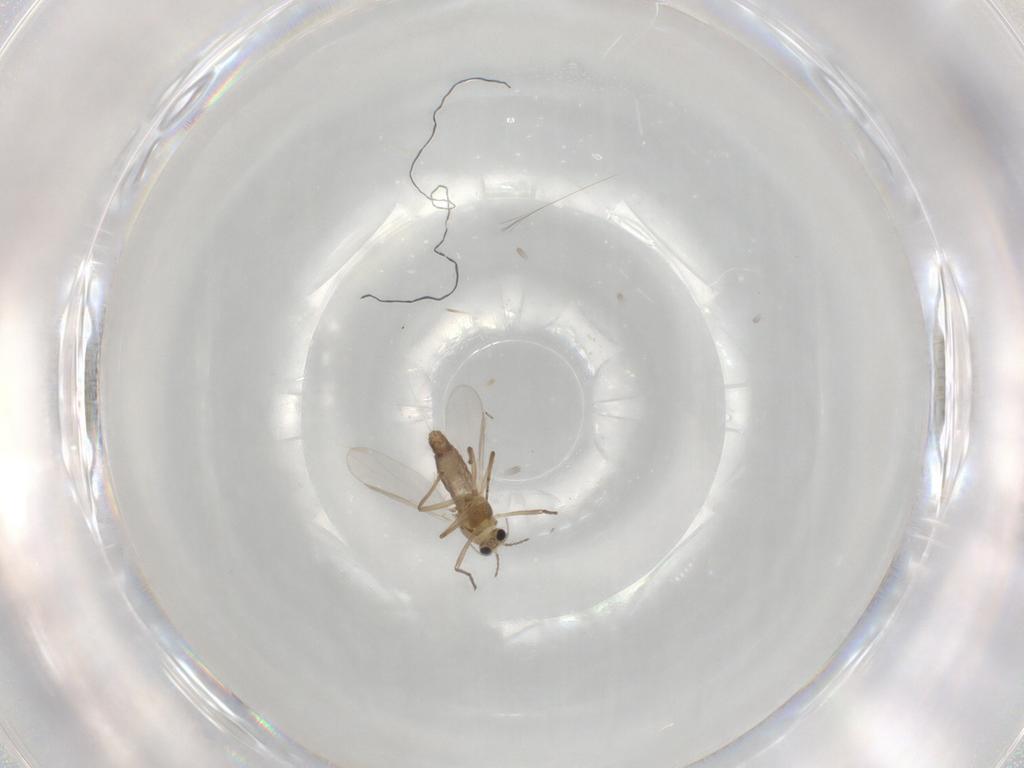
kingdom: Animalia
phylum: Arthropoda
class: Insecta
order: Diptera
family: Chironomidae
